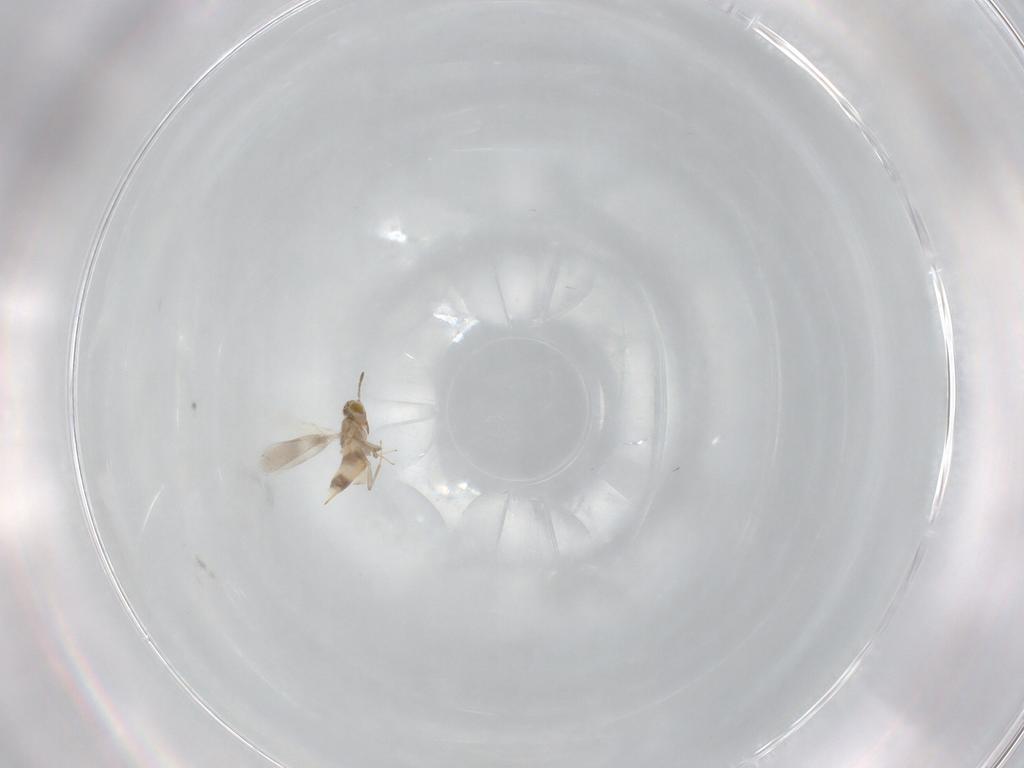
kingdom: Animalia
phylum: Arthropoda
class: Insecta
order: Hymenoptera
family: Aphelinidae
